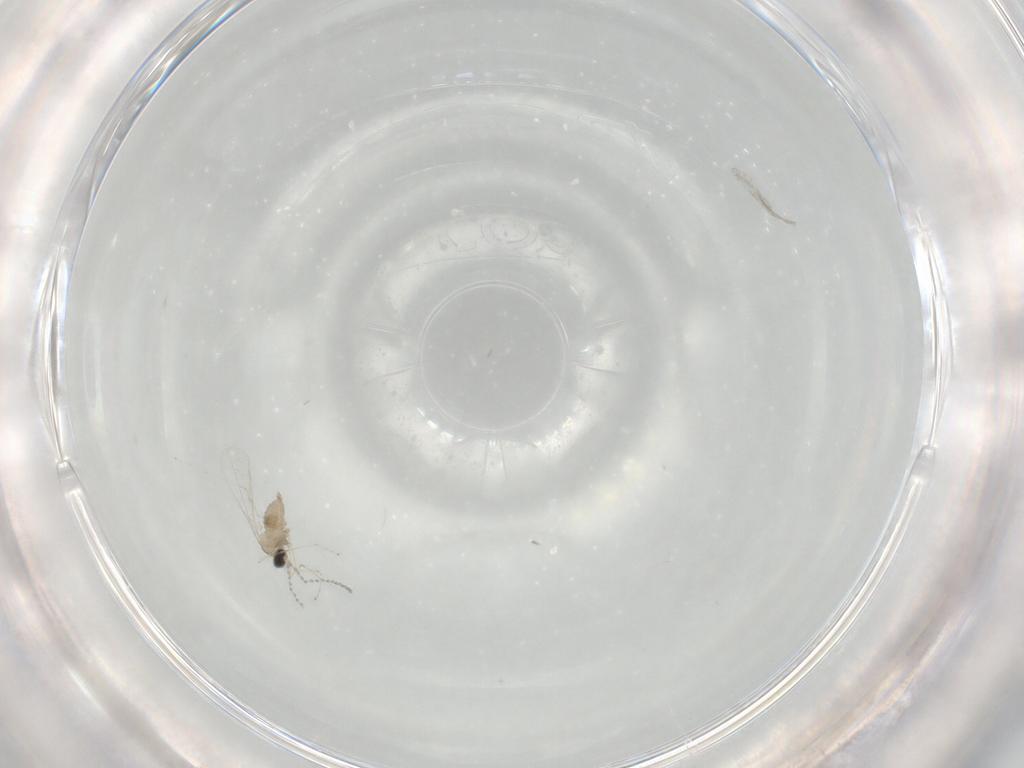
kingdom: Animalia
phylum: Arthropoda
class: Insecta
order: Diptera
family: Cecidomyiidae
